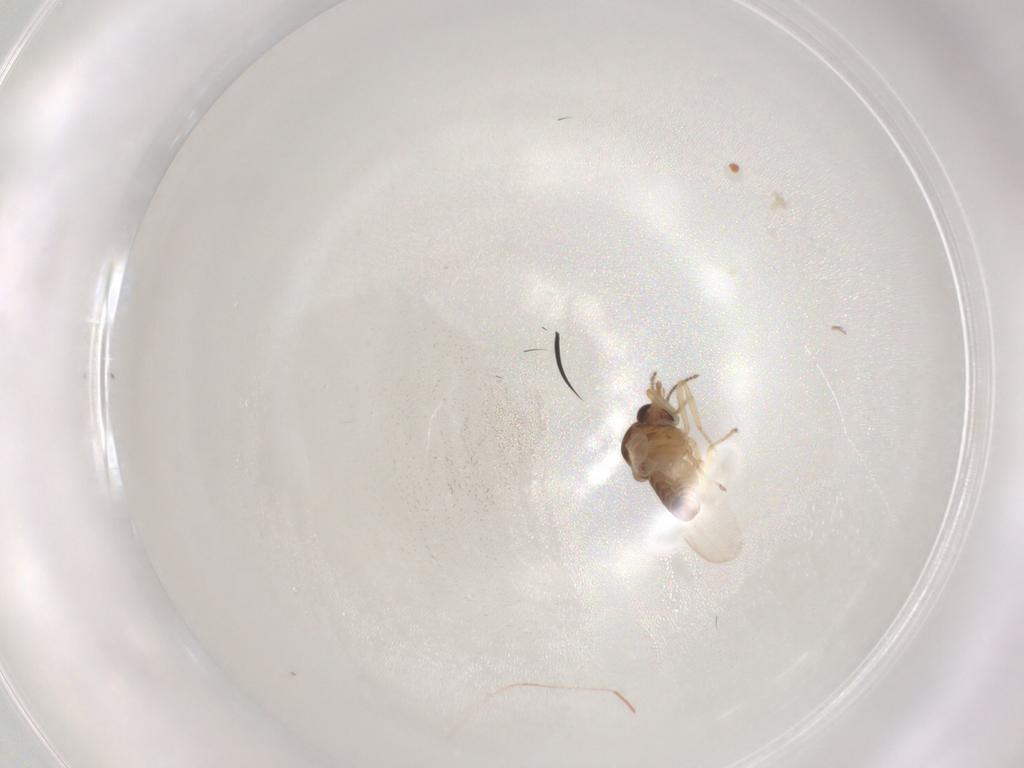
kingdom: Animalia
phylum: Arthropoda
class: Insecta
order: Diptera
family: Ceratopogonidae
